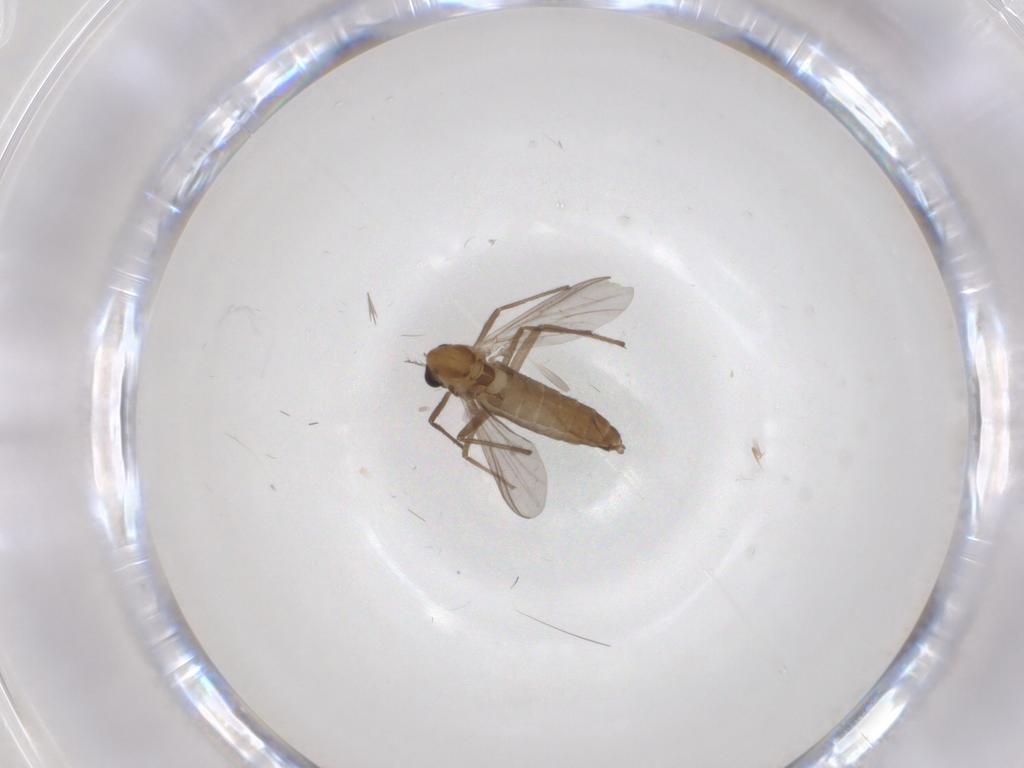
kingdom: Animalia
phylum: Arthropoda
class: Insecta
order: Diptera
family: Chironomidae
